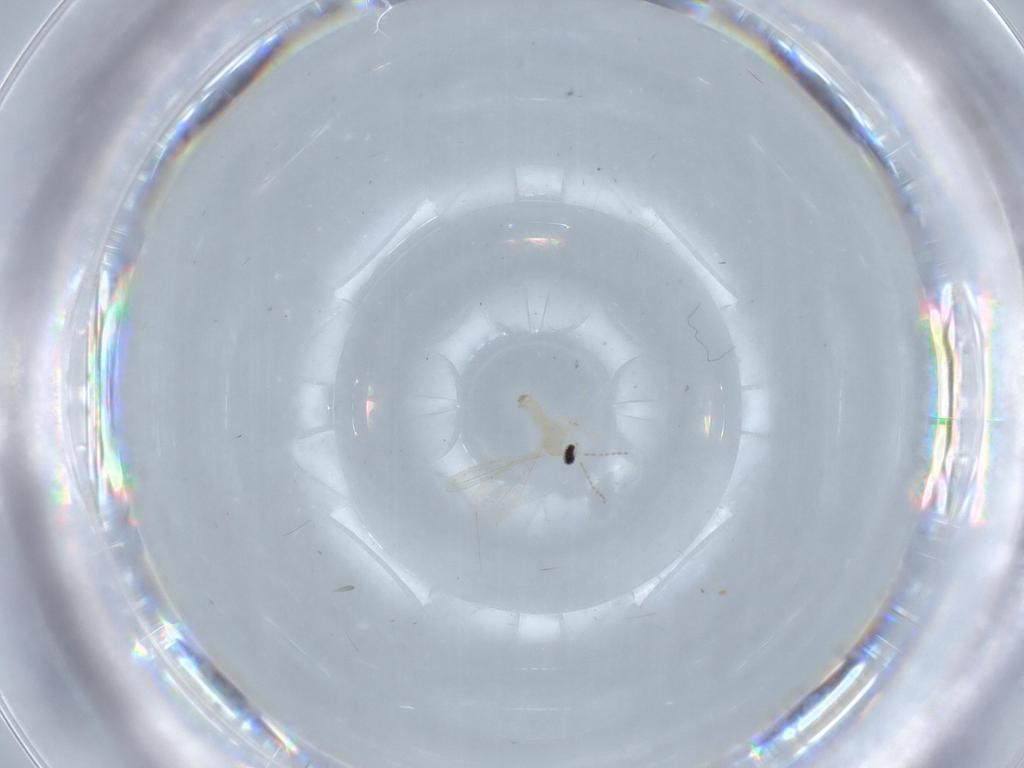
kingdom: Animalia
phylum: Arthropoda
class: Insecta
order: Diptera
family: Cecidomyiidae
